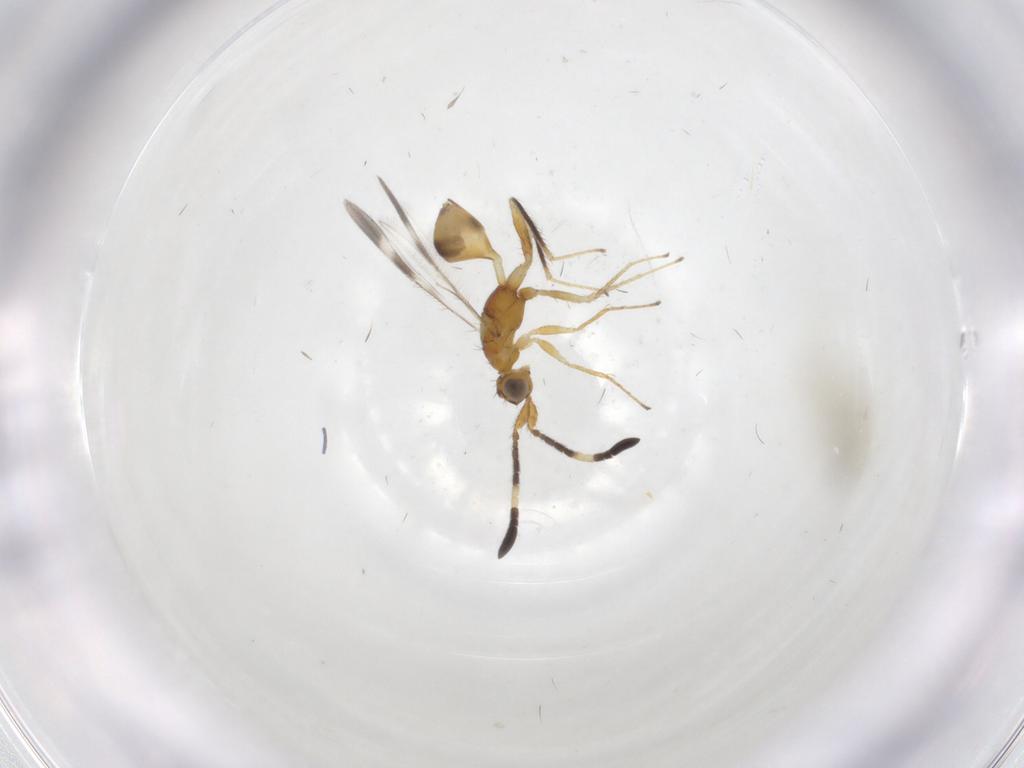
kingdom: Animalia
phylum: Arthropoda
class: Insecta
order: Hymenoptera
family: Mymaridae
